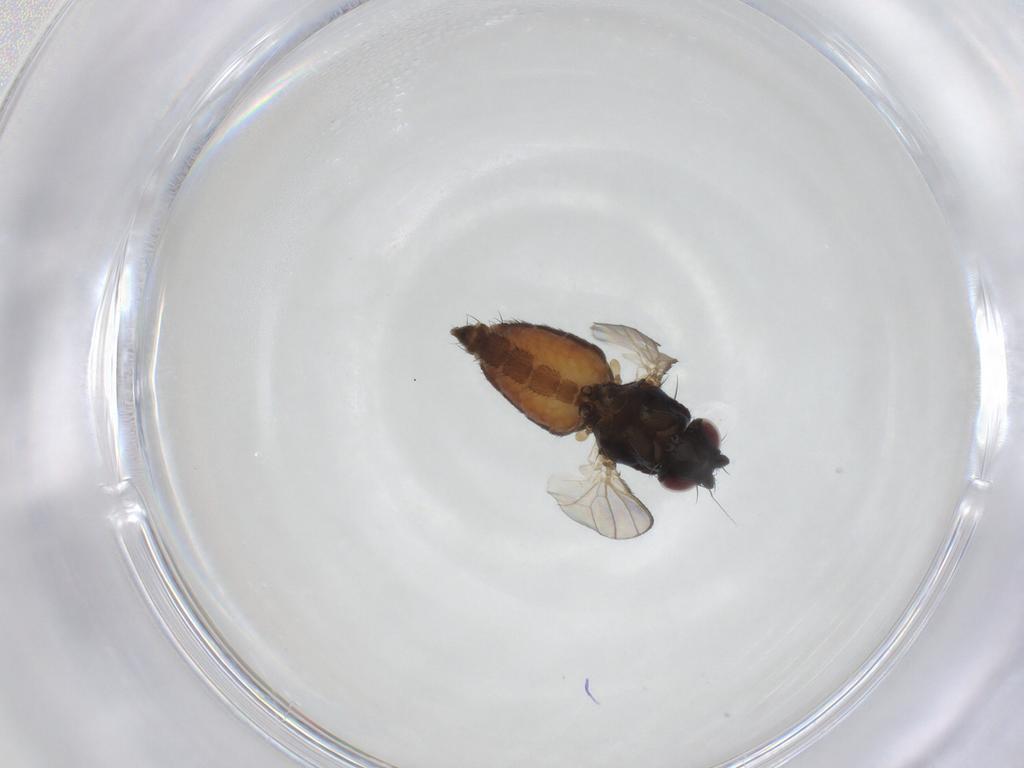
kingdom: Animalia
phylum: Arthropoda
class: Insecta
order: Diptera
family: Milichiidae
